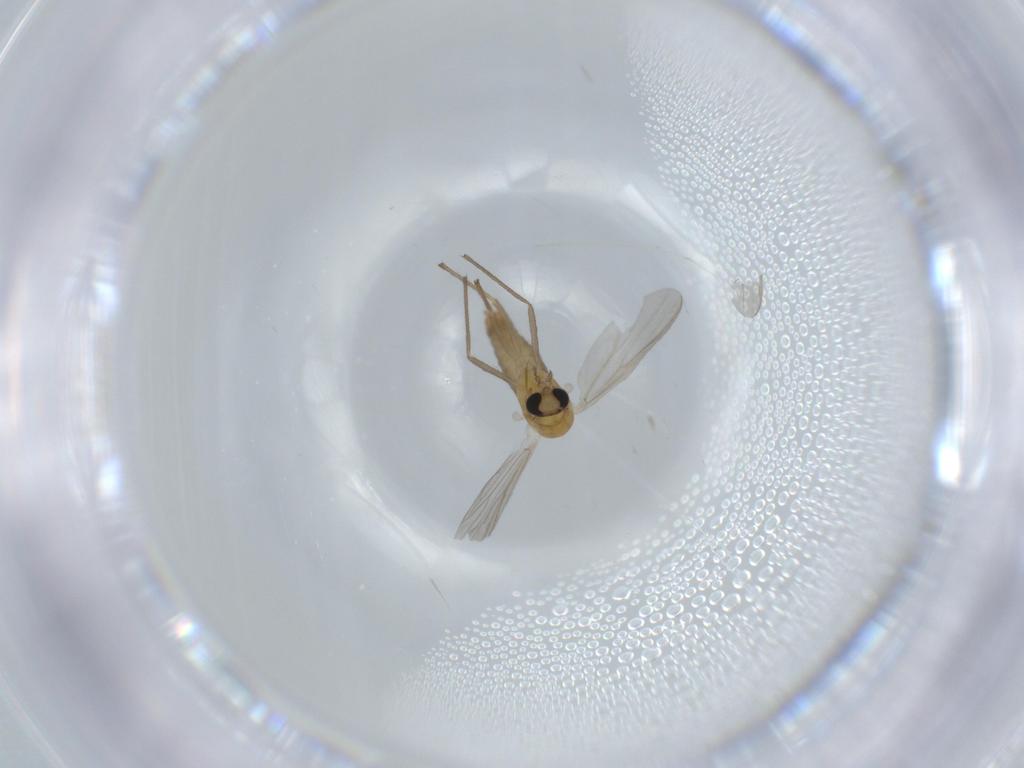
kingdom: Animalia
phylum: Arthropoda
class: Insecta
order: Diptera
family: Chironomidae
